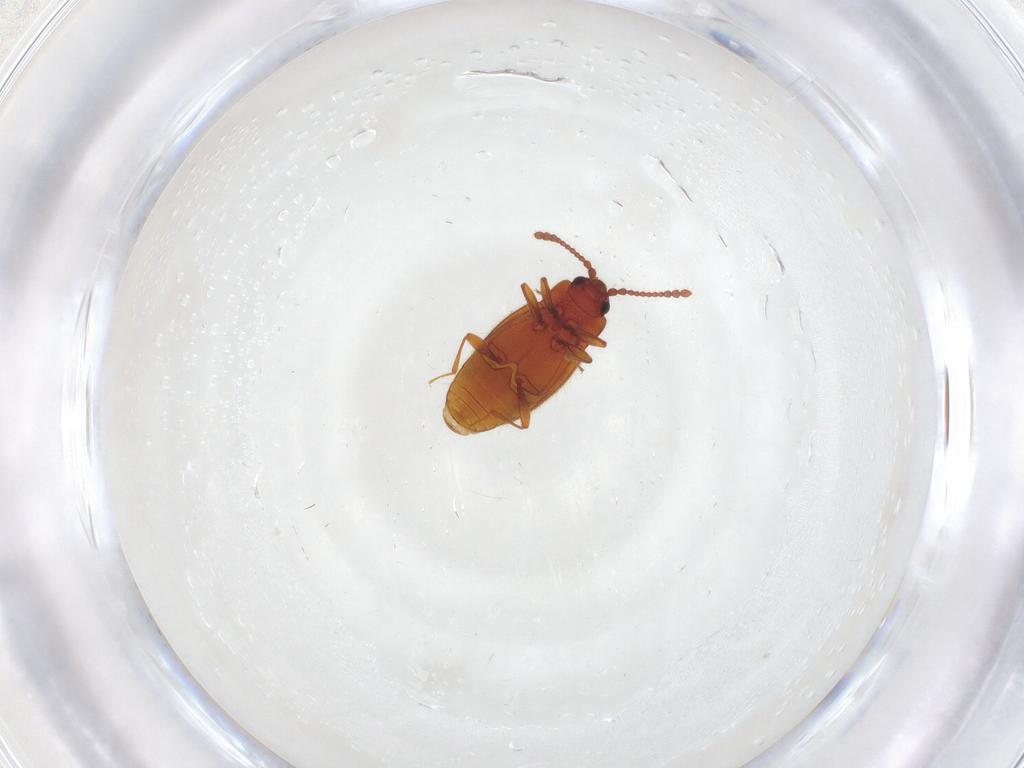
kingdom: Animalia
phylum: Arthropoda
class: Insecta
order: Coleoptera
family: Cryptophagidae
